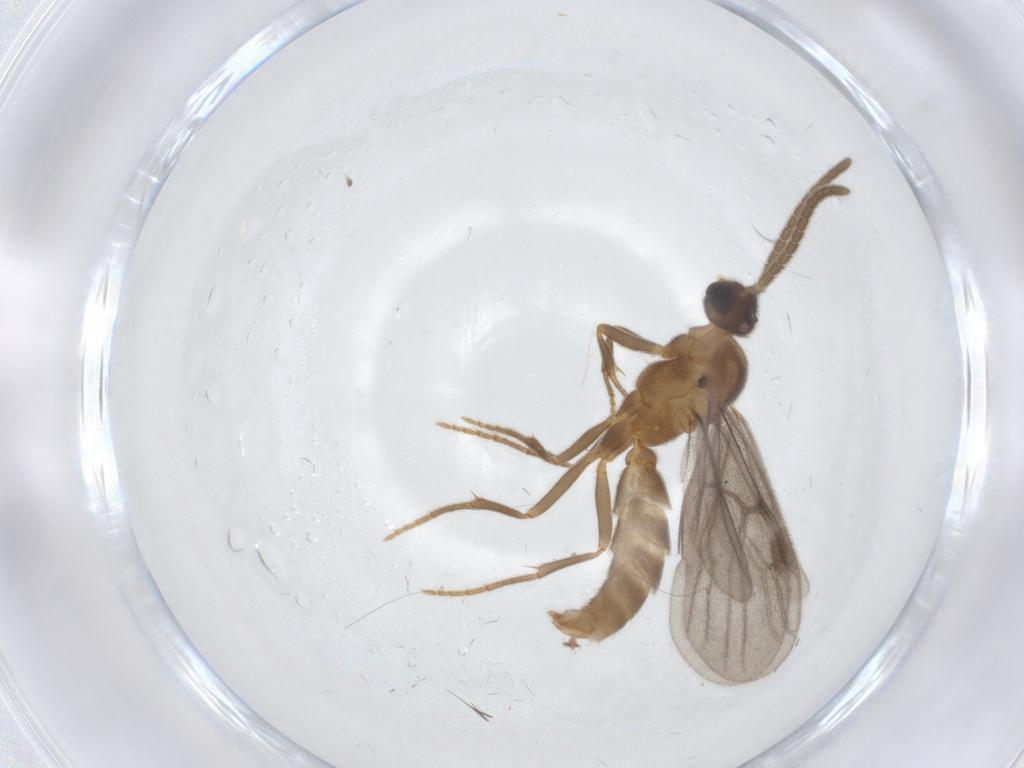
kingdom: Animalia
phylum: Arthropoda
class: Insecta
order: Hymenoptera
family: Formicidae
